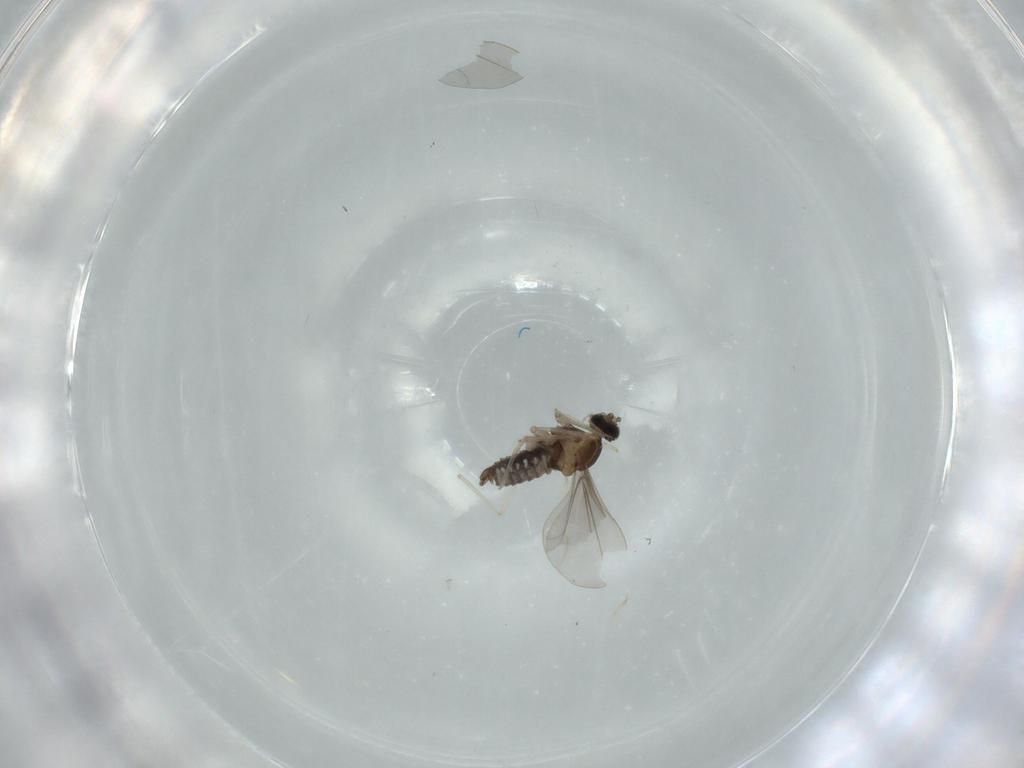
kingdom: Animalia
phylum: Arthropoda
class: Insecta
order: Diptera
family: Cecidomyiidae
